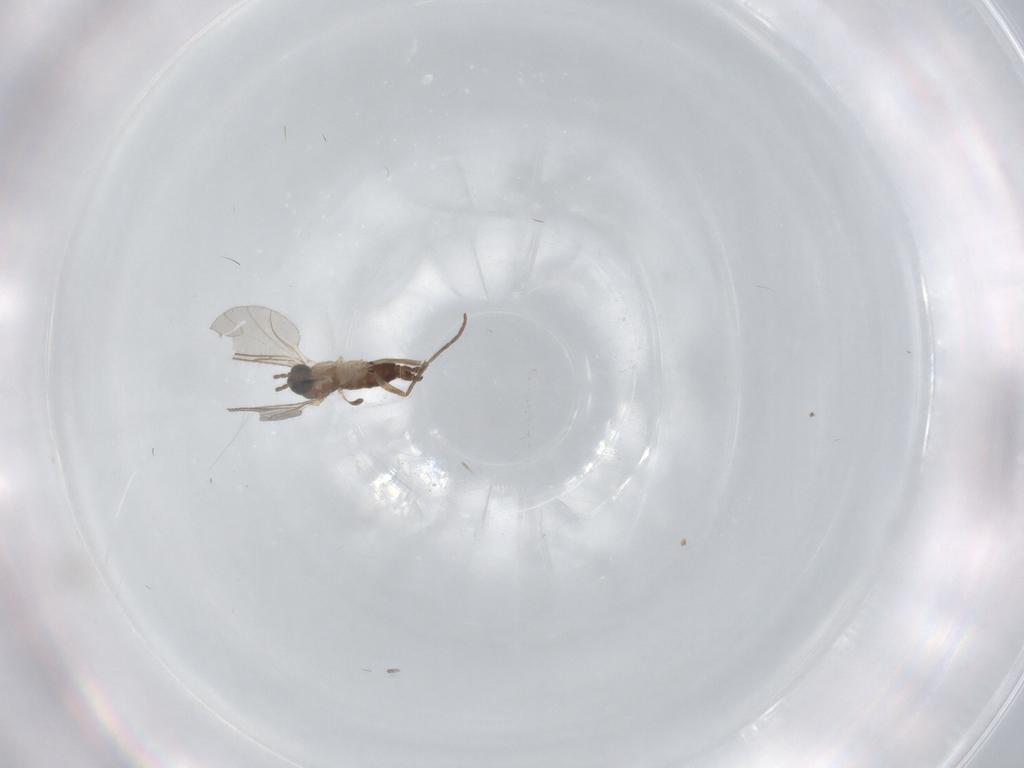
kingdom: Animalia
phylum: Arthropoda
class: Insecta
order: Diptera
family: Sciaridae
